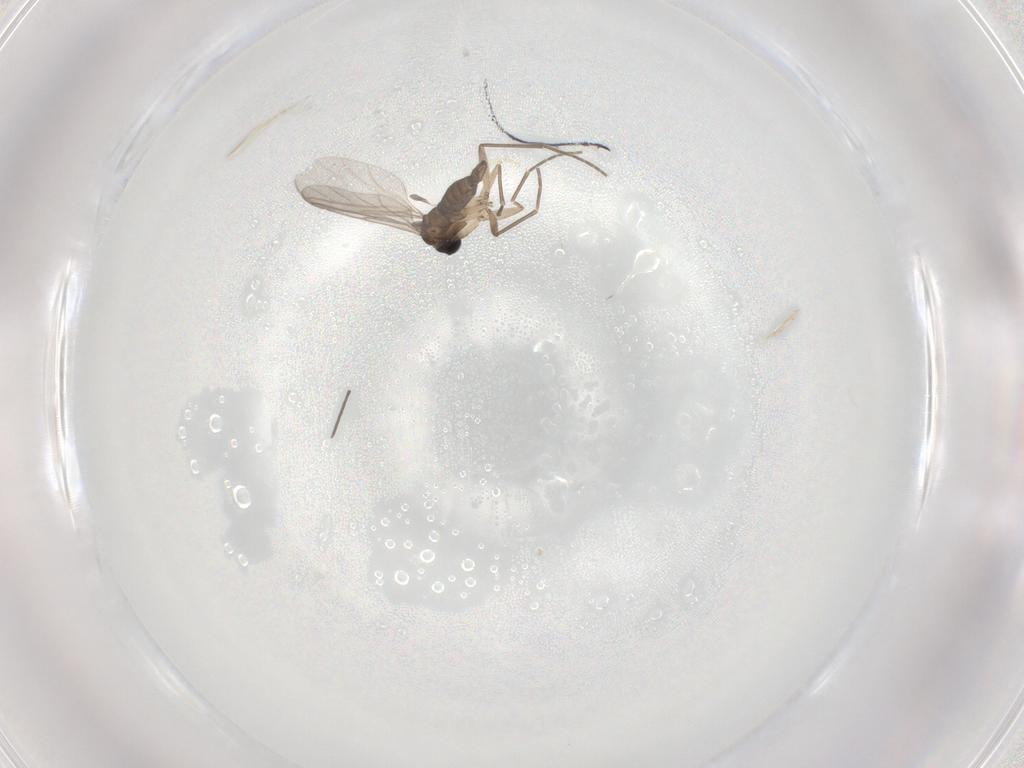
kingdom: Animalia
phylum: Arthropoda
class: Insecta
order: Diptera
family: Sciaridae
